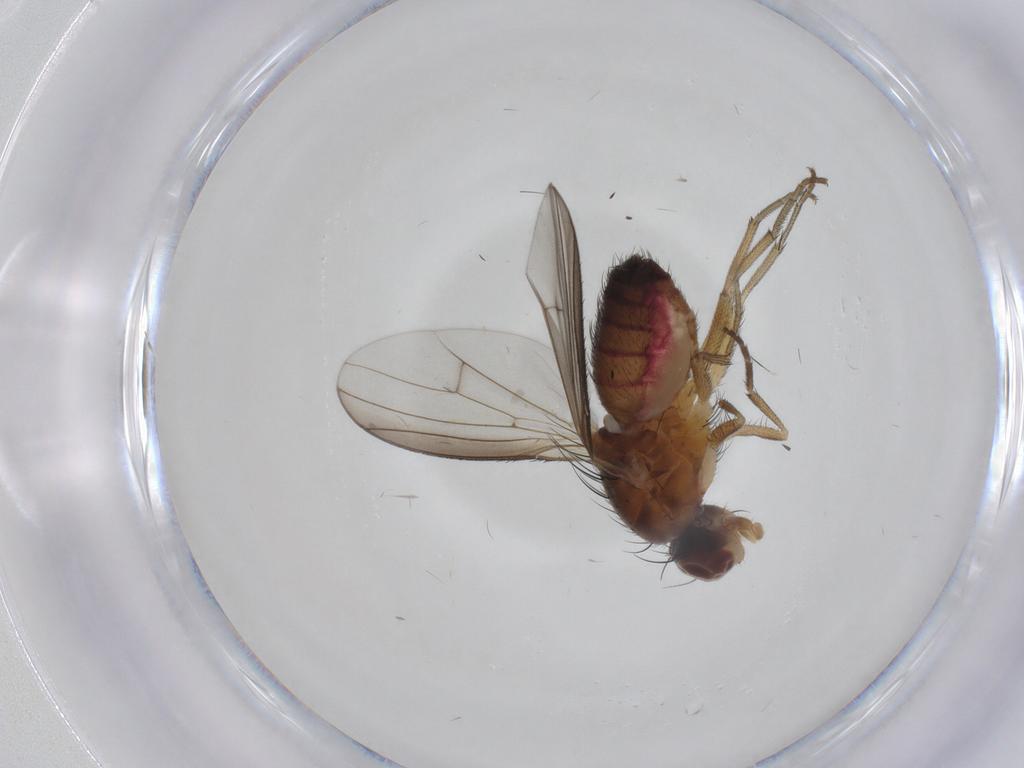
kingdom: Animalia
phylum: Arthropoda
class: Insecta
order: Diptera
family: Heleomyzidae
